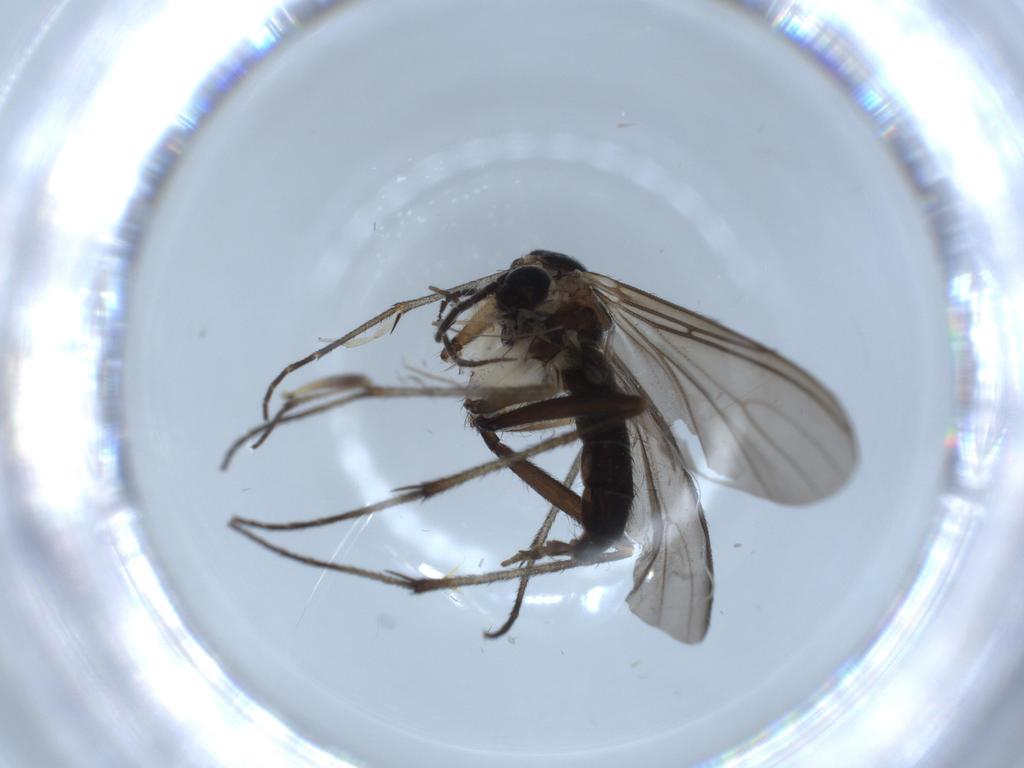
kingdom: Animalia
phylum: Arthropoda
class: Insecta
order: Diptera
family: Sciaridae
